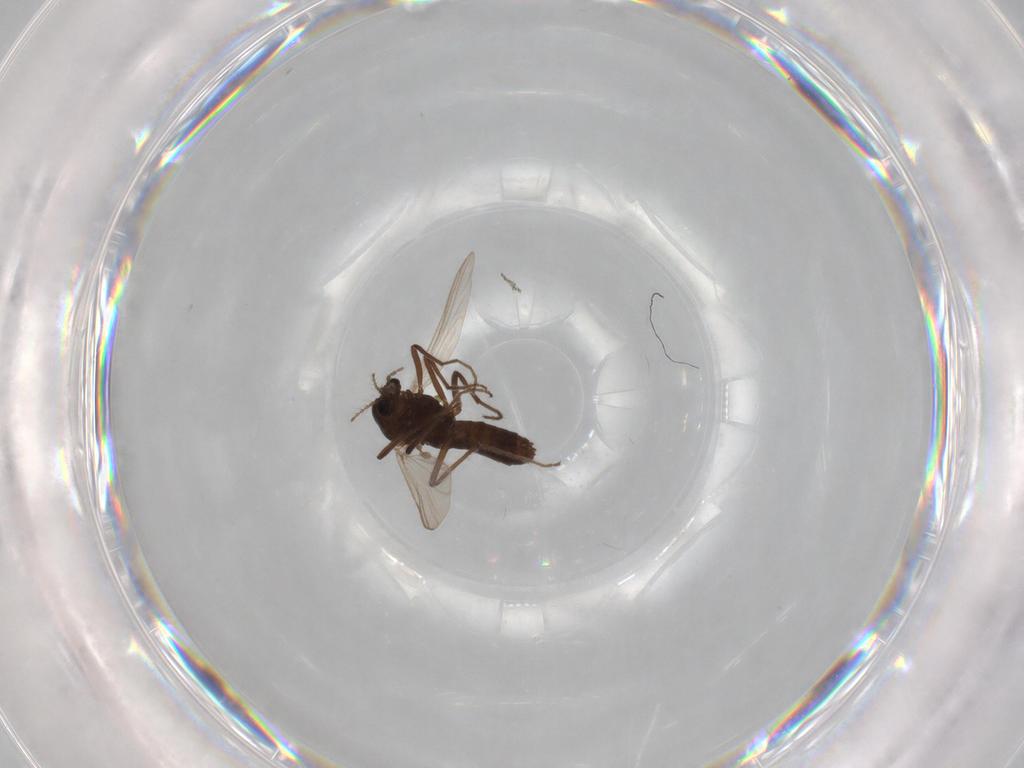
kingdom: Animalia
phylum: Arthropoda
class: Insecta
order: Diptera
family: Chironomidae
